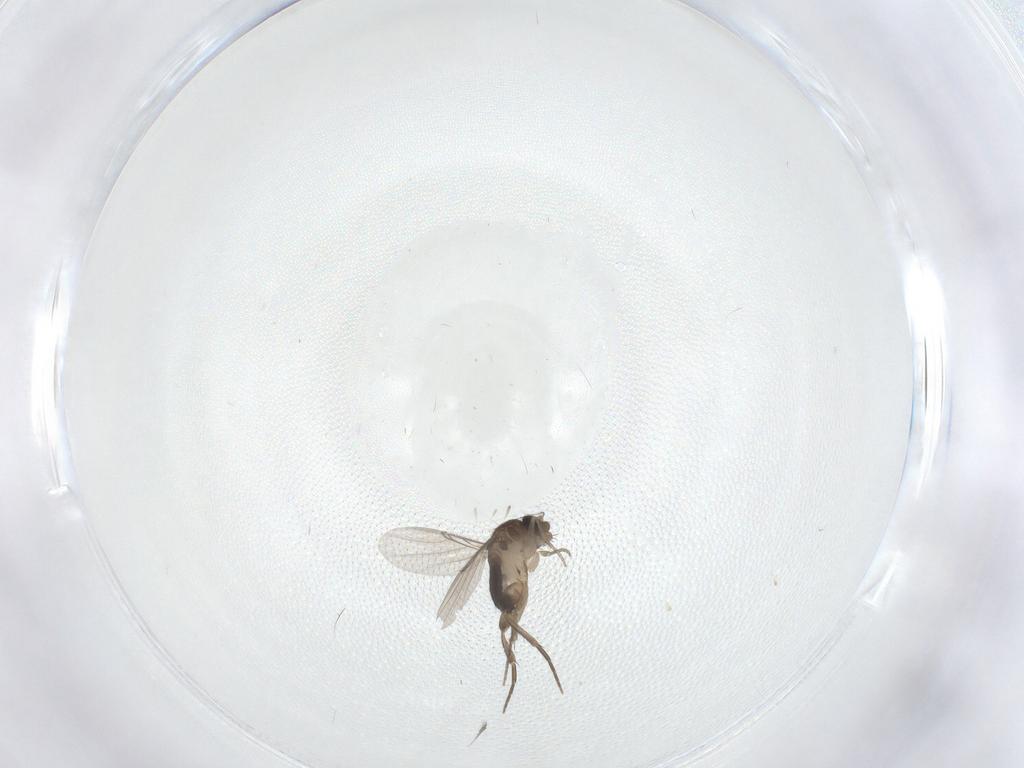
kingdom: Animalia
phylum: Arthropoda
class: Insecta
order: Diptera
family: Phoridae
